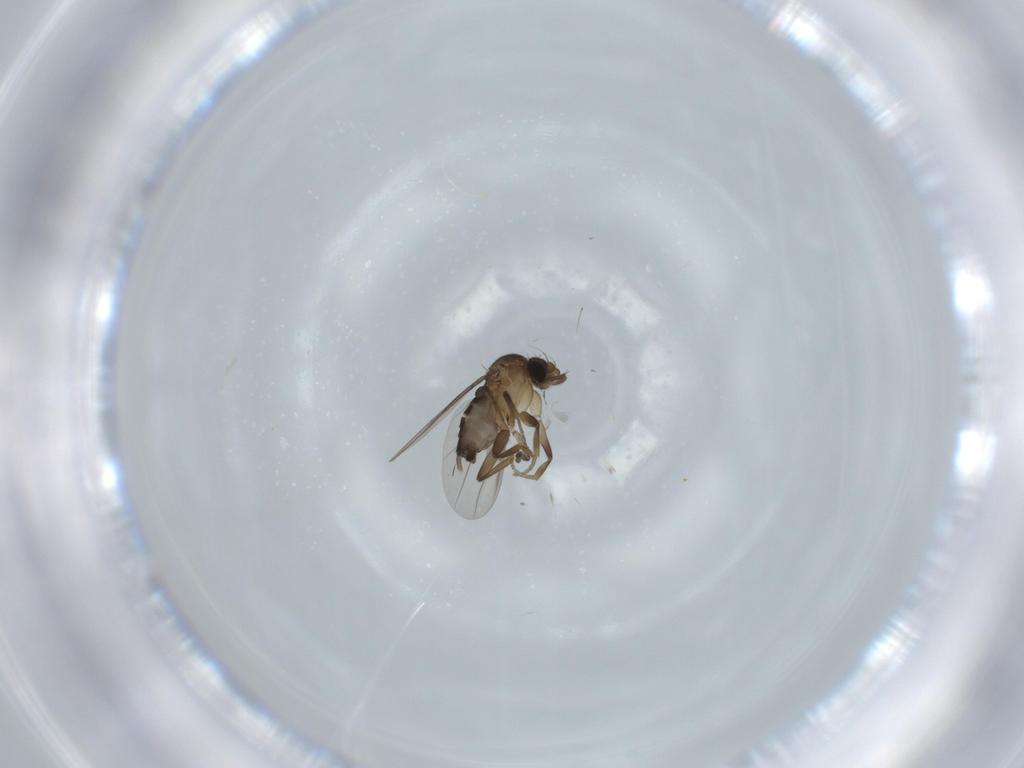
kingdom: Animalia
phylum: Arthropoda
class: Insecta
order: Diptera
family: Phoridae
